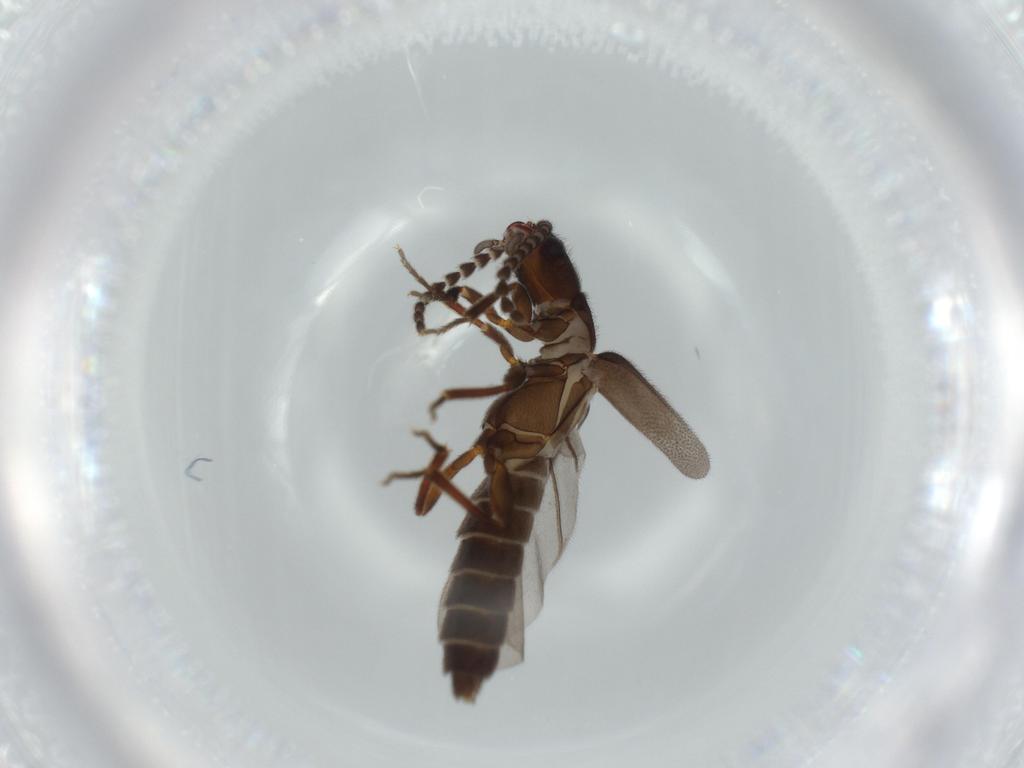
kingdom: Animalia
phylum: Arthropoda
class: Insecta
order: Coleoptera
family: Omethidae
